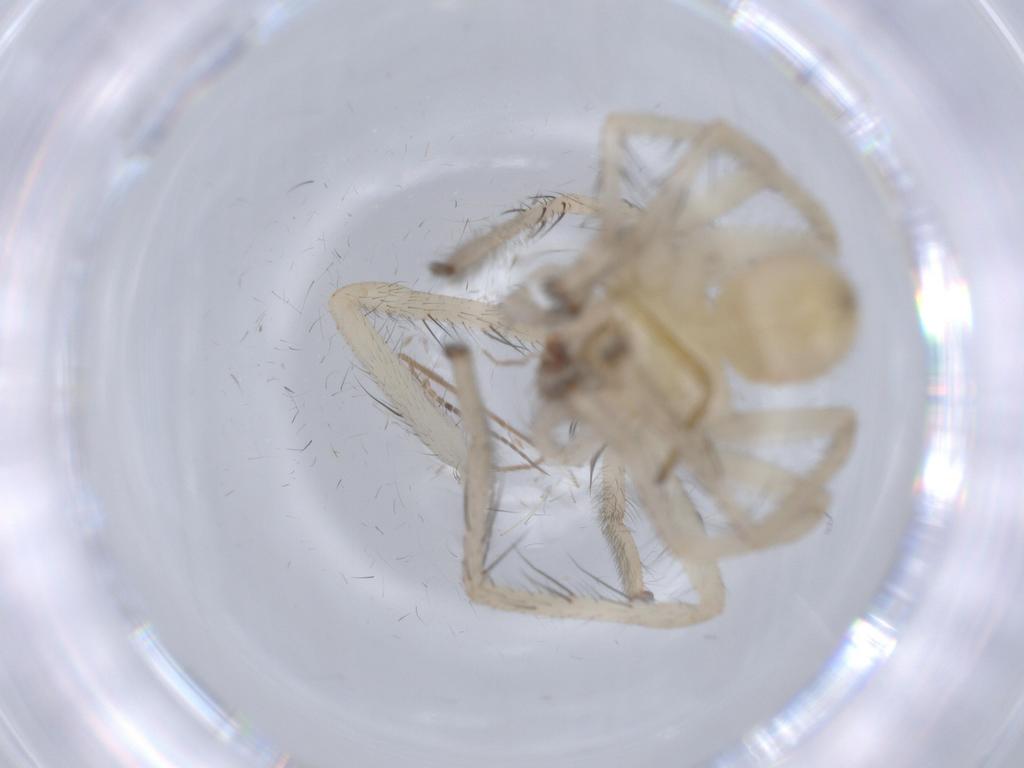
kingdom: Animalia
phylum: Arthropoda
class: Arachnida
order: Araneae
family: Sparassidae
